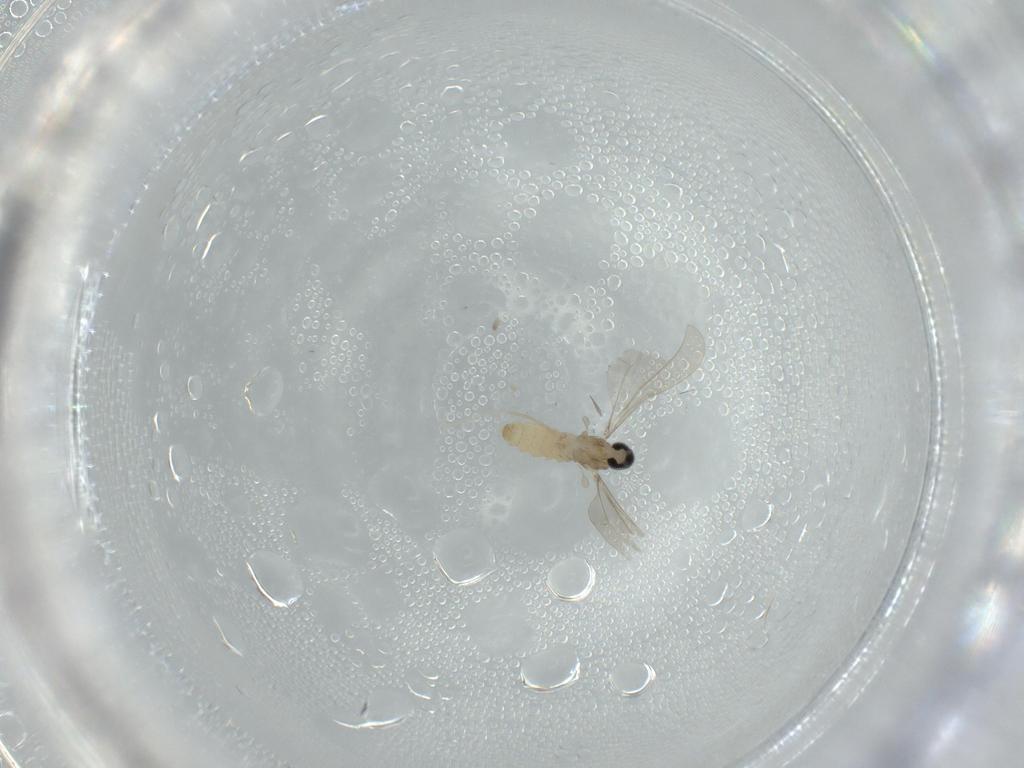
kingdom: Animalia
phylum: Arthropoda
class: Insecta
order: Diptera
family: Cecidomyiidae
